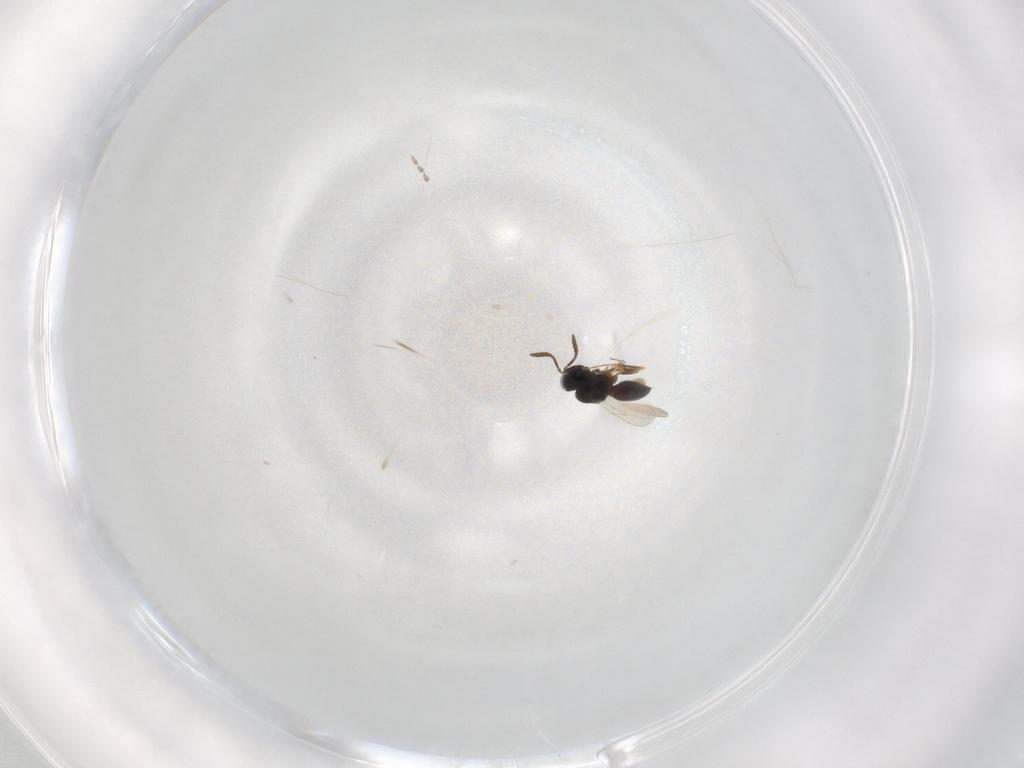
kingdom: Animalia
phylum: Arthropoda
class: Insecta
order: Hymenoptera
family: Scelionidae
